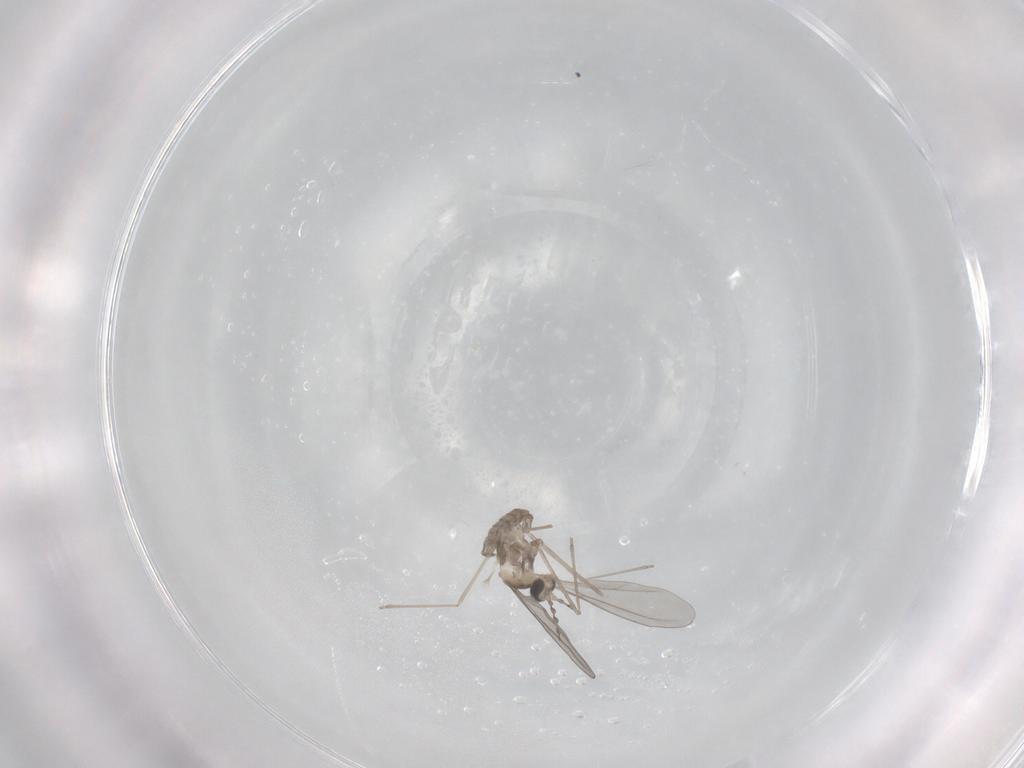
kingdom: Animalia
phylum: Arthropoda
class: Insecta
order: Diptera
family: Cecidomyiidae
